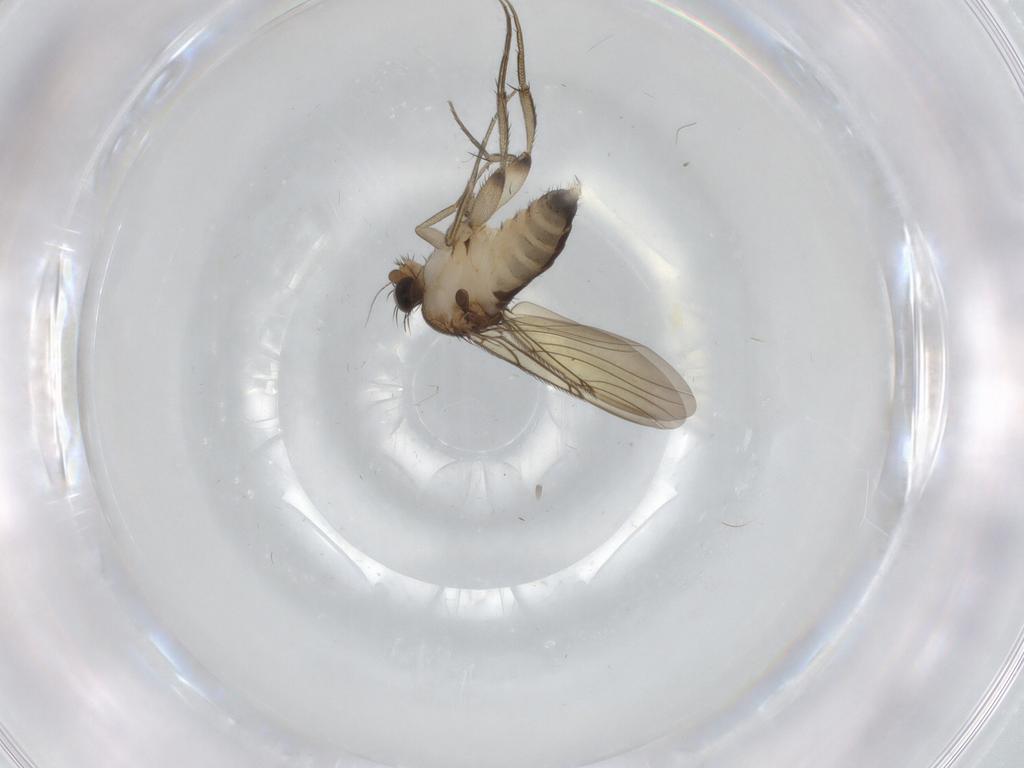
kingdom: Animalia
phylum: Arthropoda
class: Insecta
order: Diptera
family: Phoridae
